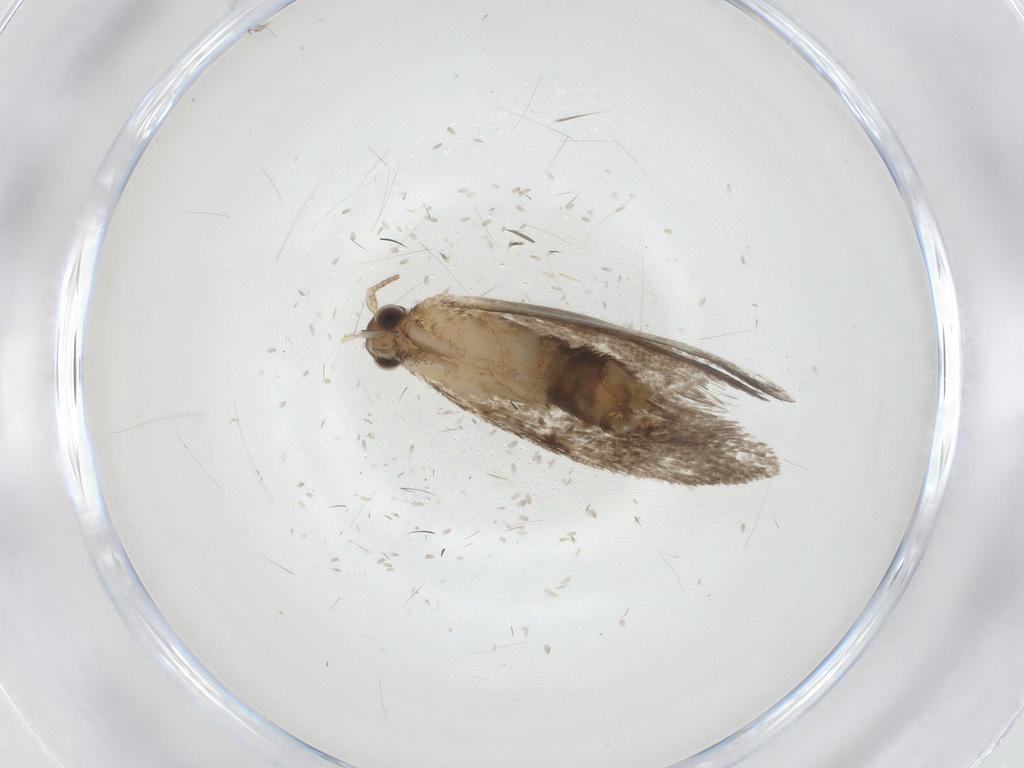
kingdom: Animalia
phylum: Arthropoda
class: Insecta
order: Lepidoptera
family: Dryadaulidae
